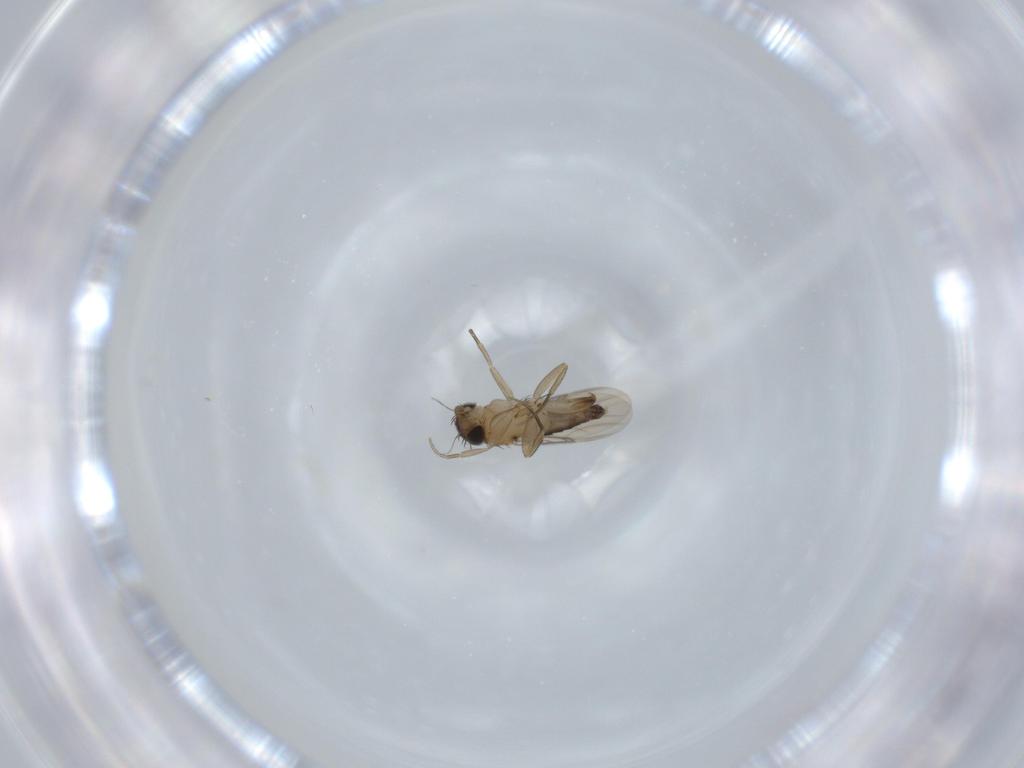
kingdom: Animalia
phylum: Arthropoda
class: Insecta
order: Diptera
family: Phoridae
